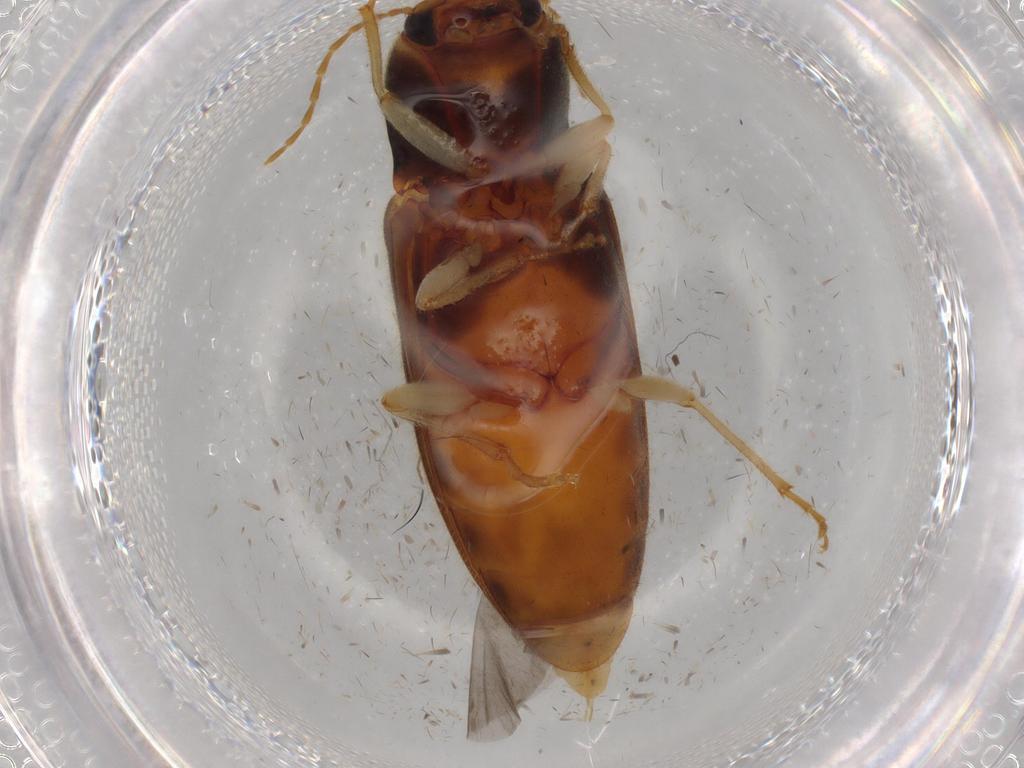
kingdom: Animalia
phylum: Arthropoda
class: Insecta
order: Coleoptera
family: Elateridae
